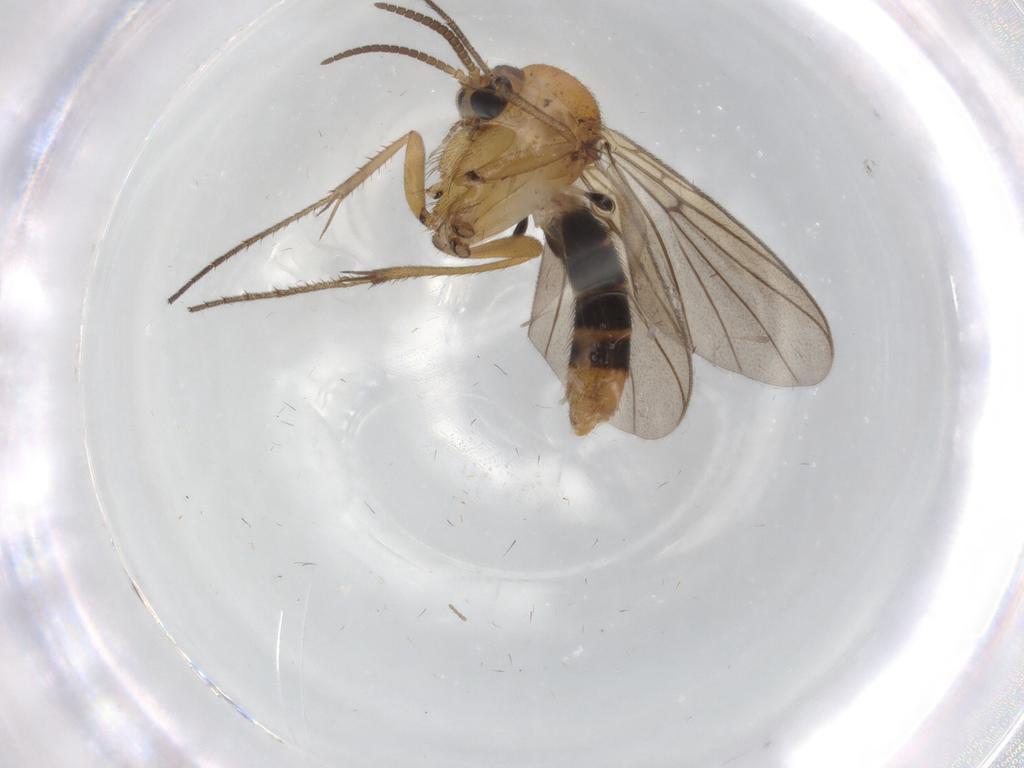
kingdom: Animalia
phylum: Arthropoda
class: Insecta
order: Diptera
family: Mycetophilidae
